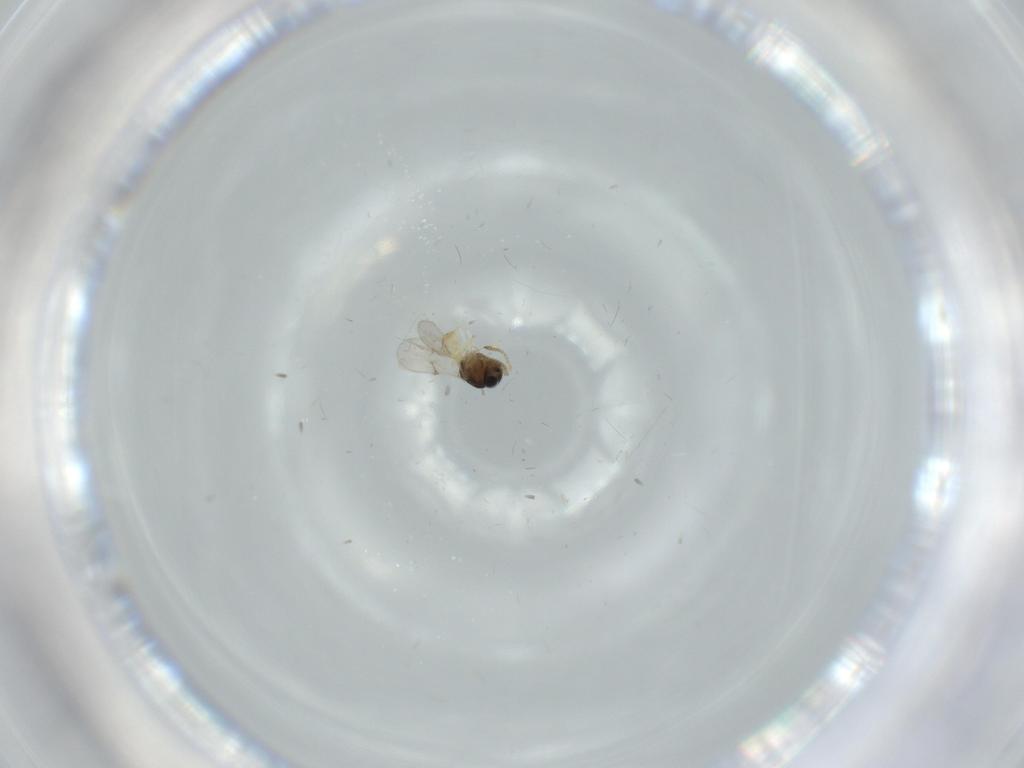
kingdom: Animalia
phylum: Arthropoda
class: Insecta
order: Hymenoptera
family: Scelionidae
